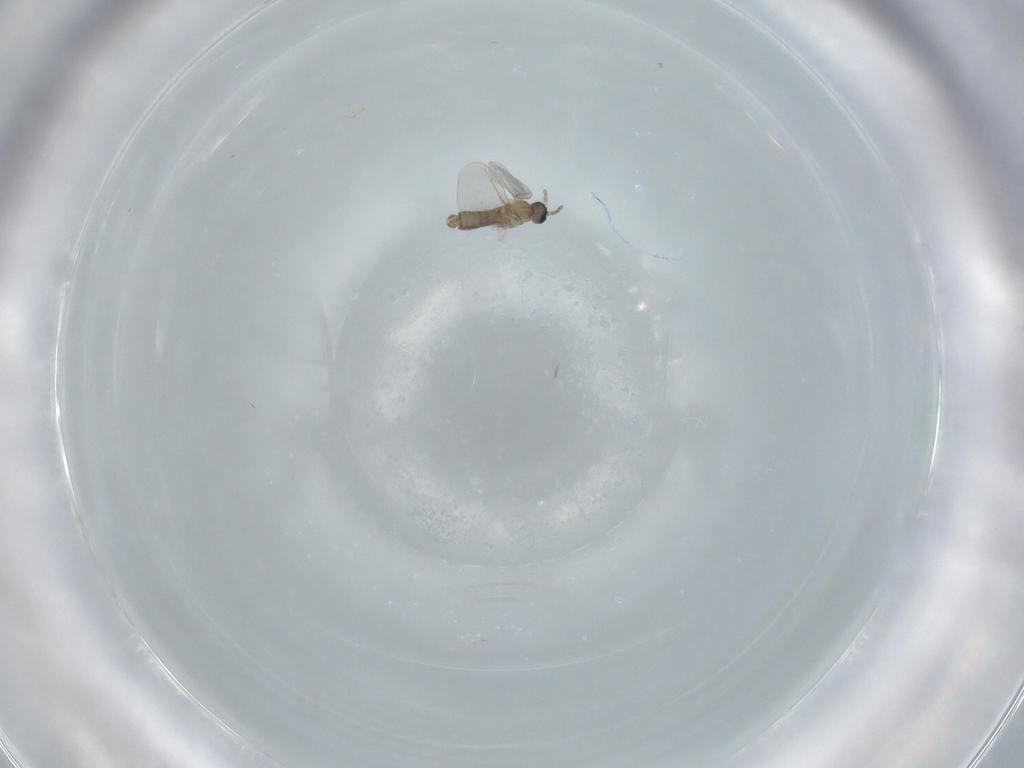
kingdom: Animalia
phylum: Arthropoda
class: Insecta
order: Diptera
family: Cecidomyiidae
